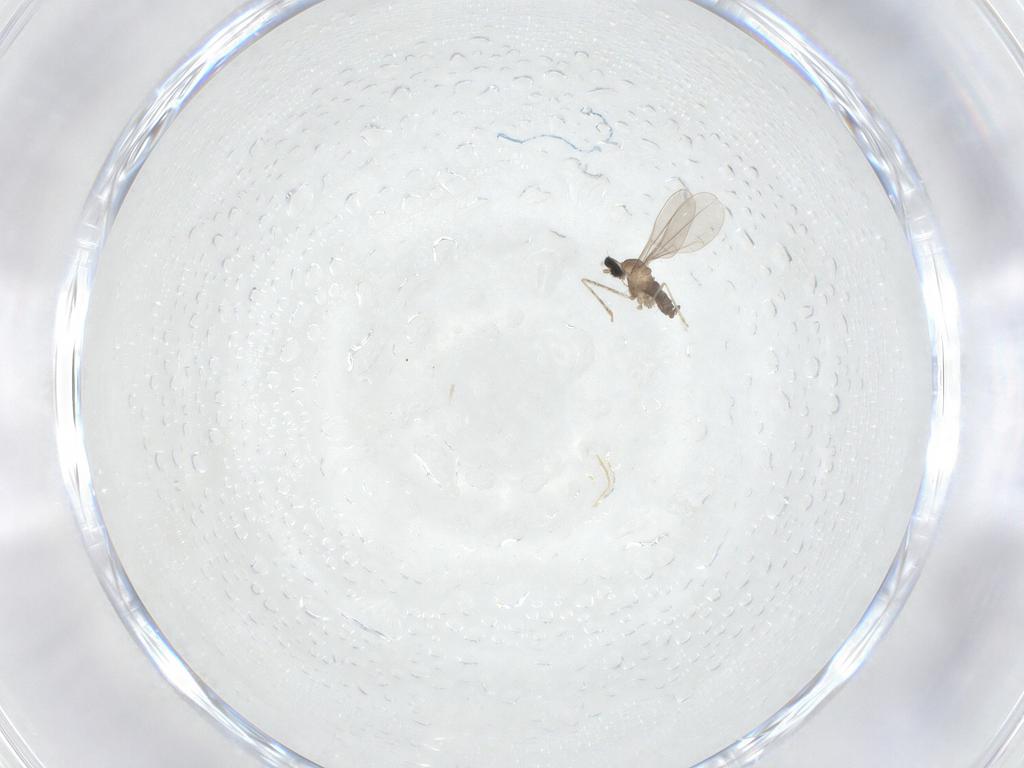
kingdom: Animalia
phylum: Arthropoda
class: Insecta
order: Diptera
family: Cecidomyiidae
